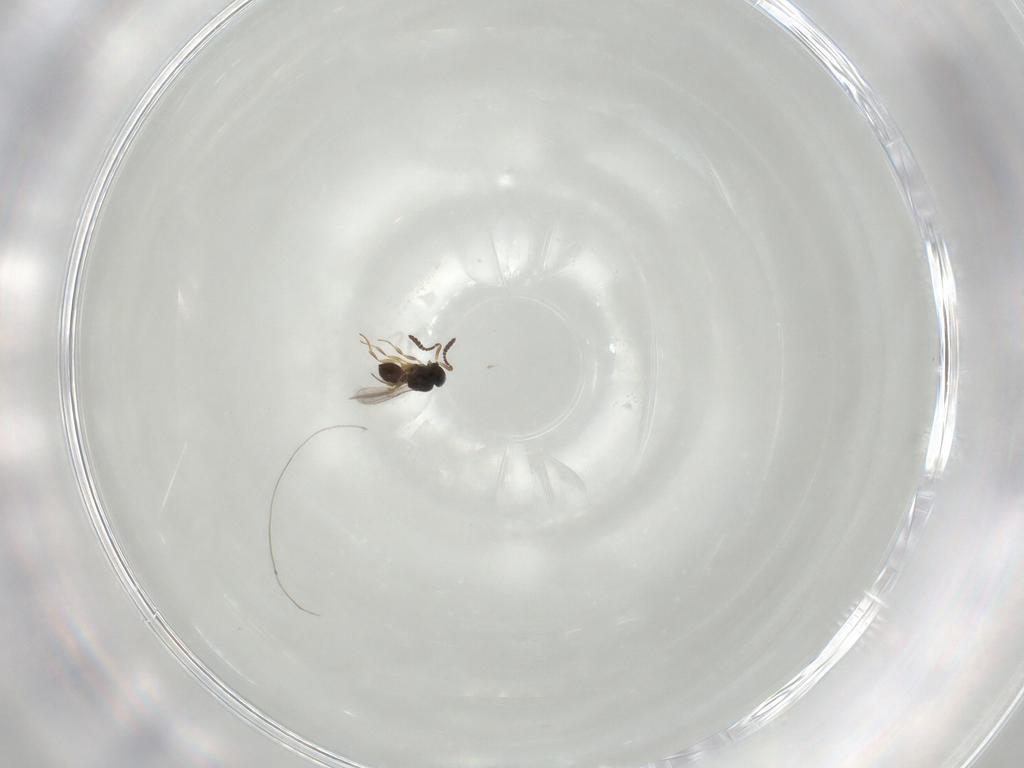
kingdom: Animalia
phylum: Arthropoda
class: Insecta
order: Hymenoptera
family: Scelionidae
